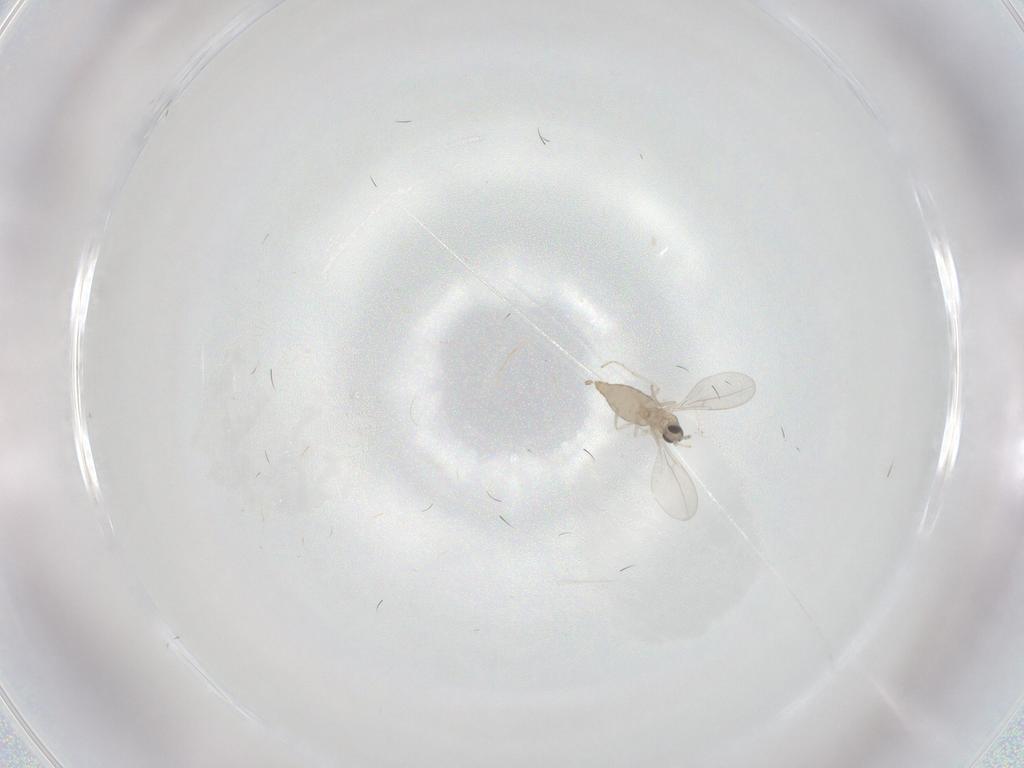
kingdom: Animalia
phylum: Arthropoda
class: Insecta
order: Diptera
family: Cecidomyiidae
